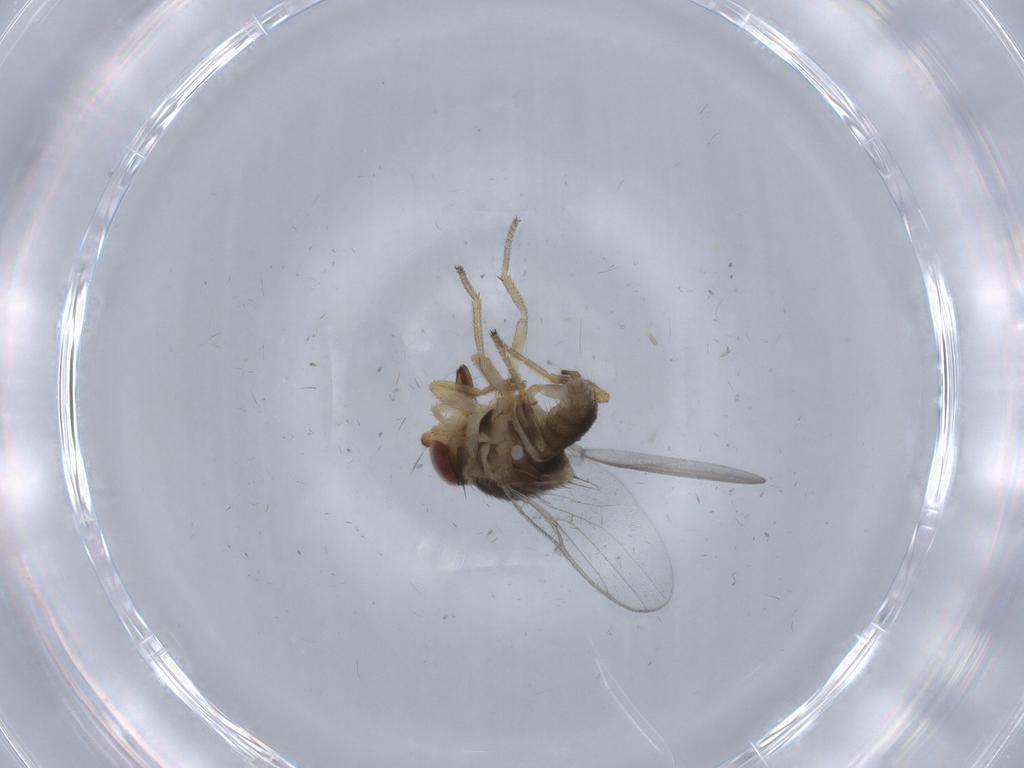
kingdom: Animalia
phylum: Arthropoda
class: Insecta
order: Diptera
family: Chloropidae
